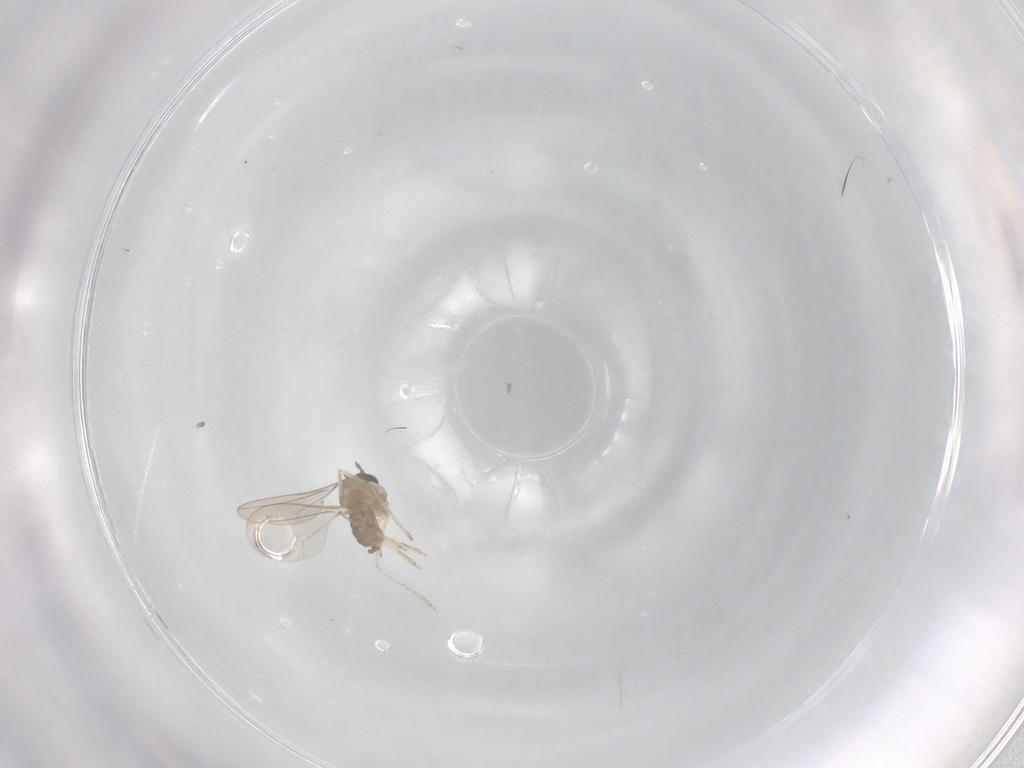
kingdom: Animalia
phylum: Arthropoda
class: Insecta
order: Diptera
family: Phoridae
